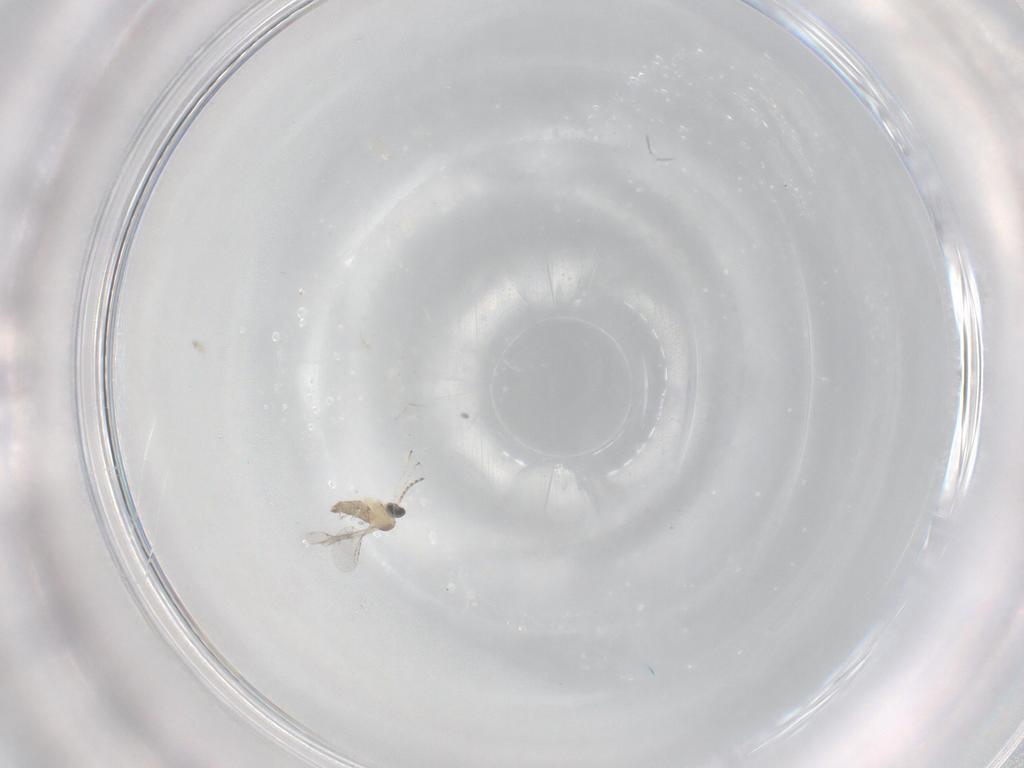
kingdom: Animalia
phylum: Arthropoda
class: Insecta
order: Diptera
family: Cecidomyiidae
